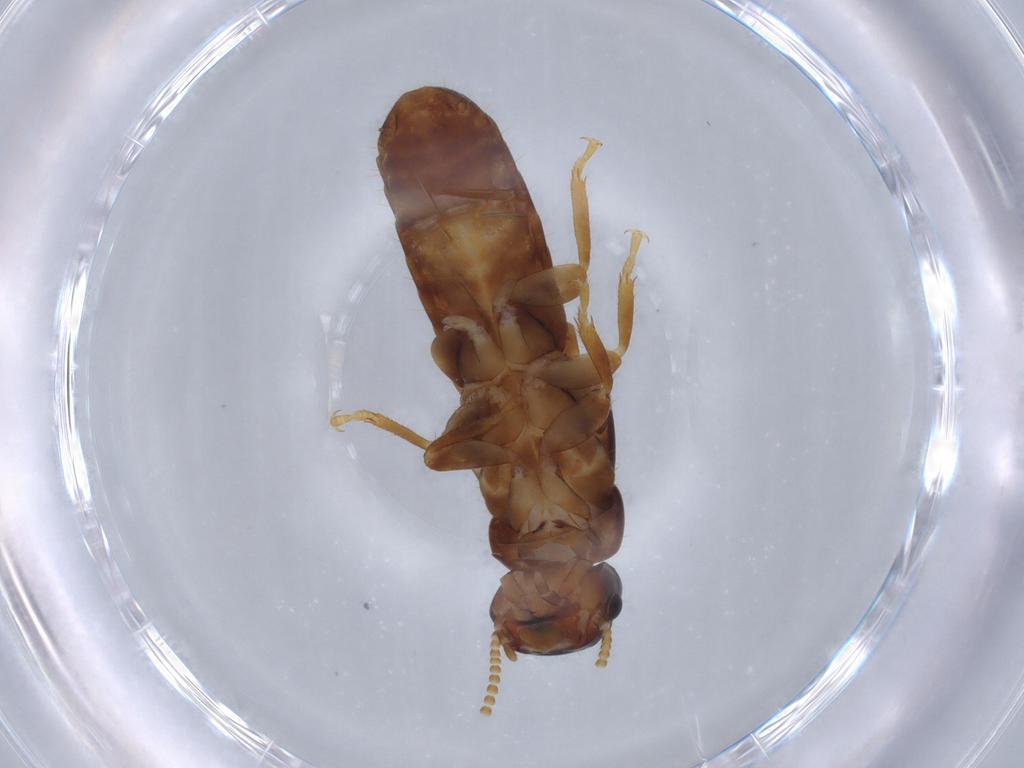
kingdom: Animalia
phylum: Arthropoda
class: Insecta
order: Blattodea
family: Kalotermitidae
